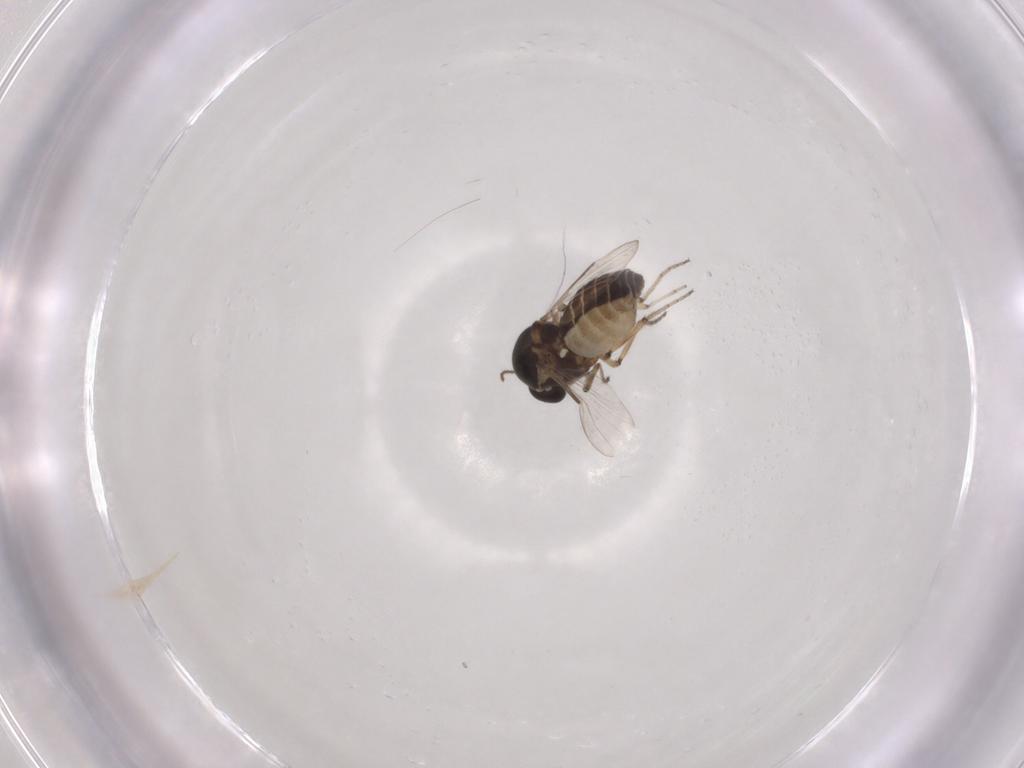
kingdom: Animalia
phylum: Arthropoda
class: Insecta
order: Diptera
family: Ceratopogonidae
